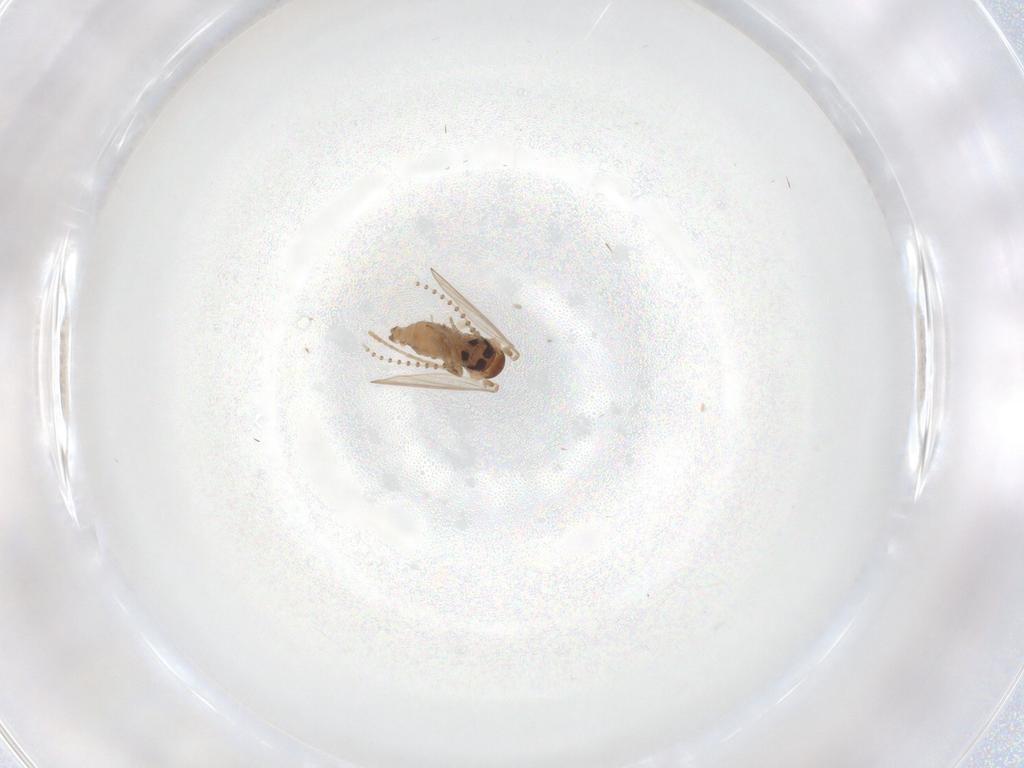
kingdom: Animalia
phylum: Arthropoda
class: Insecta
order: Diptera
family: Psychodidae
